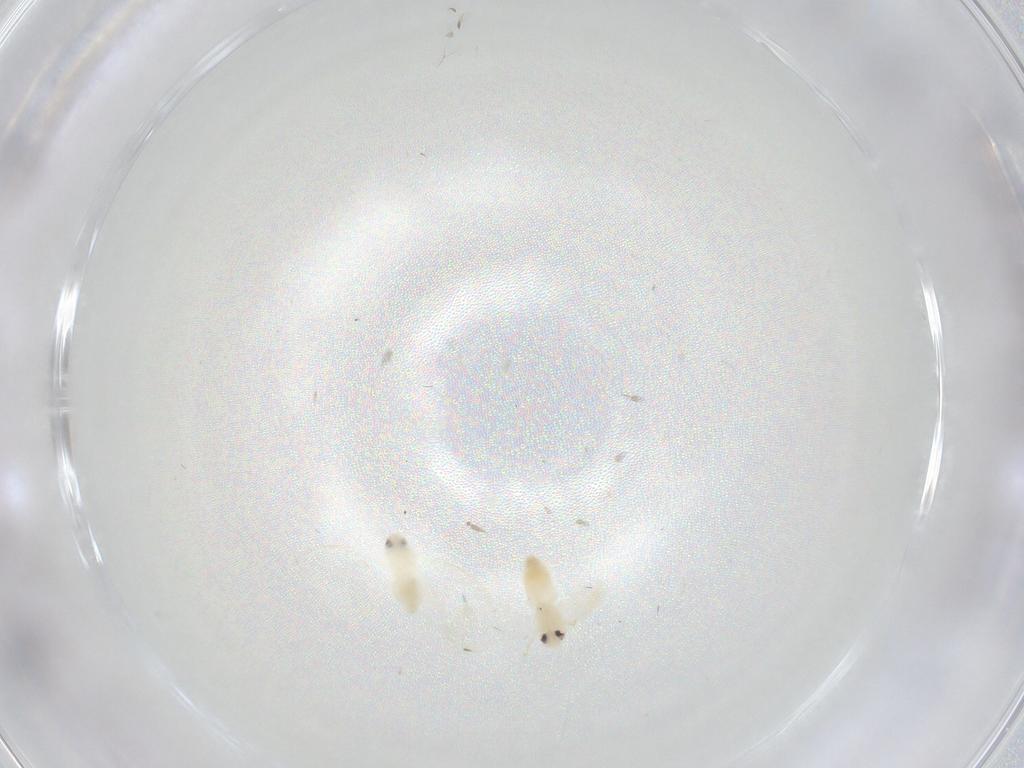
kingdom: Animalia
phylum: Arthropoda
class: Insecta
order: Hemiptera
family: Aleyrodidae
